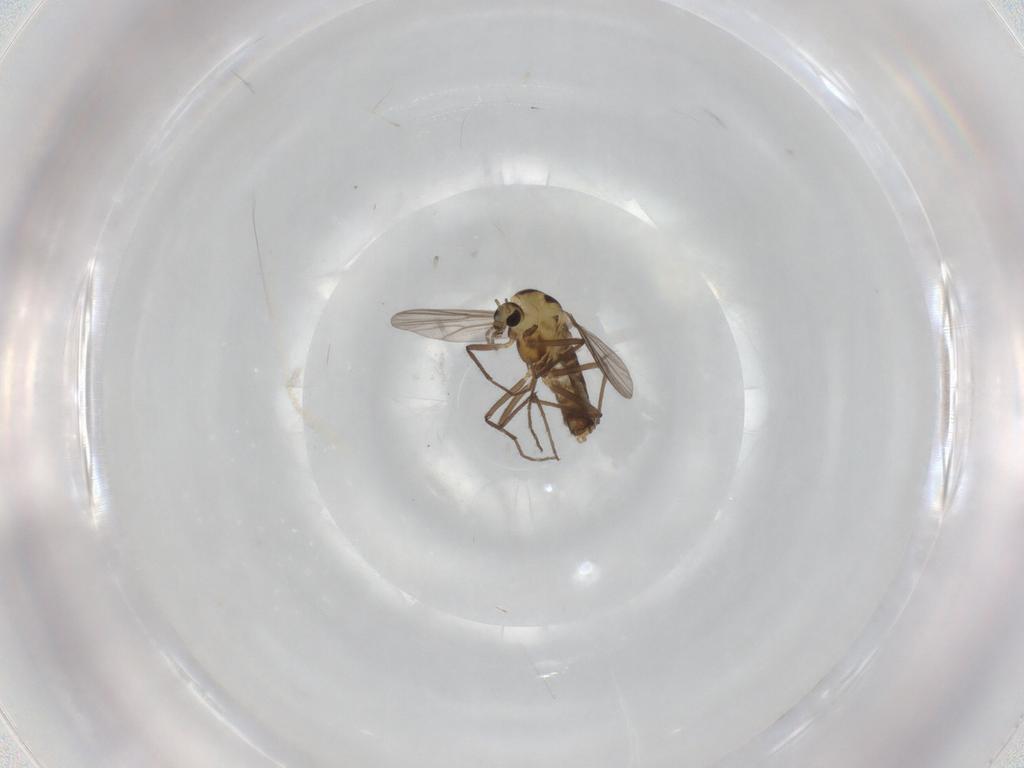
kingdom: Animalia
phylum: Arthropoda
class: Insecta
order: Diptera
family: Chironomidae
